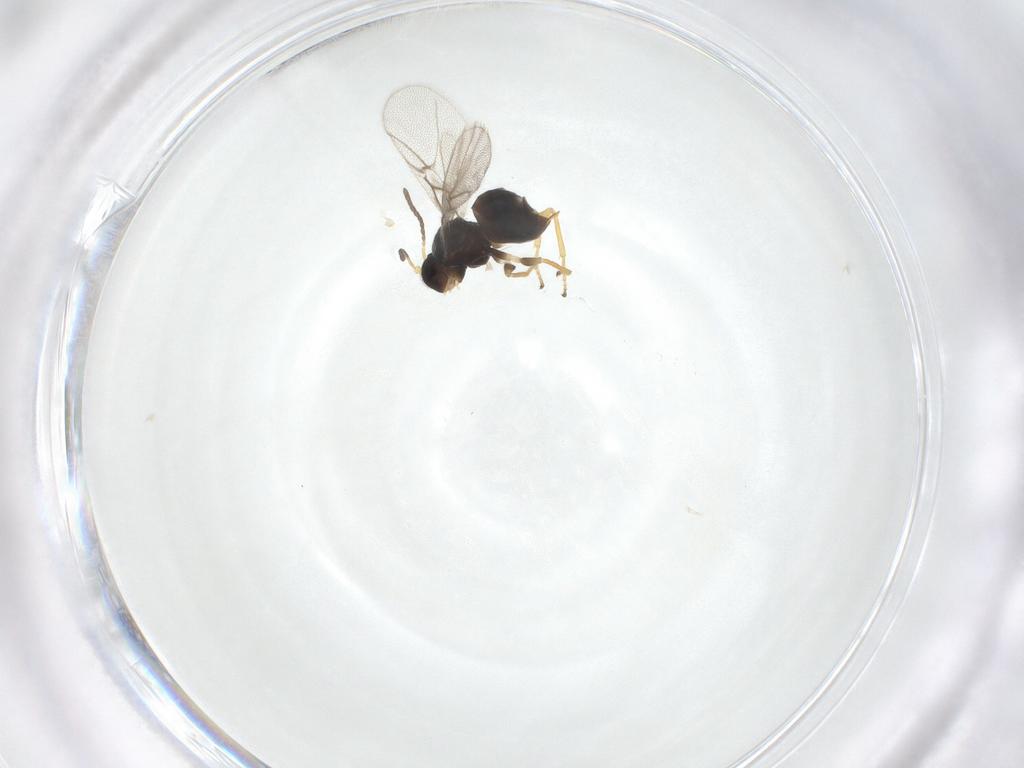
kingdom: Animalia
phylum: Arthropoda
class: Insecta
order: Hymenoptera
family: Cynipidae
